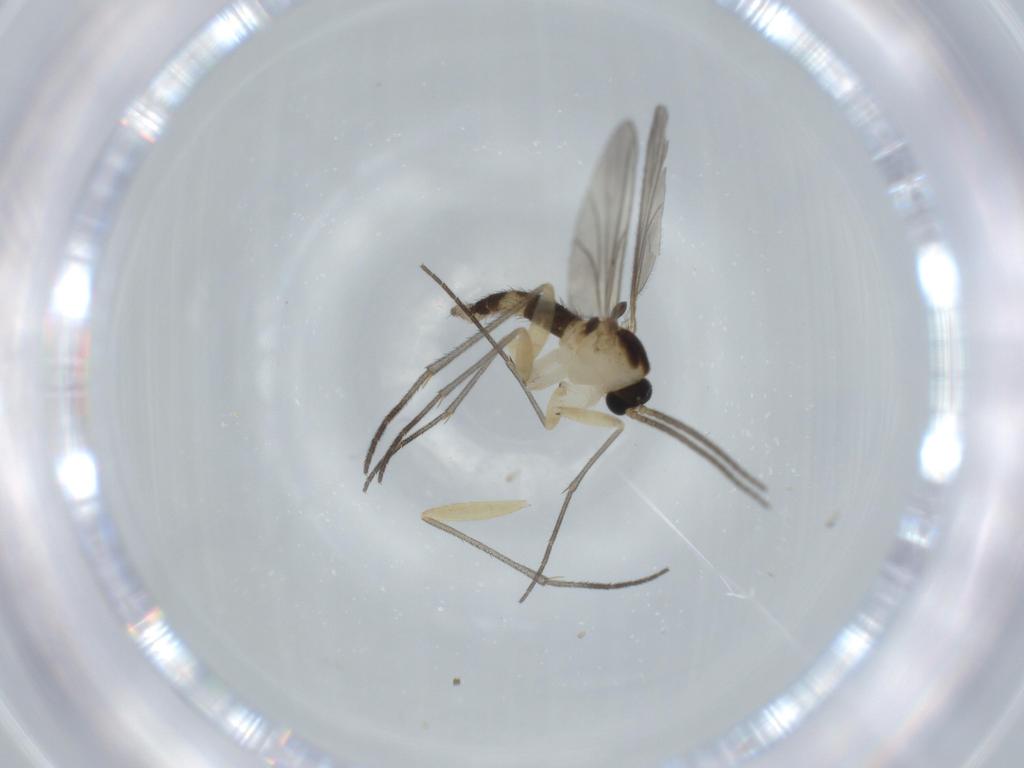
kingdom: Animalia
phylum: Arthropoda
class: Insecta
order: Diptera
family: Sciaridae
